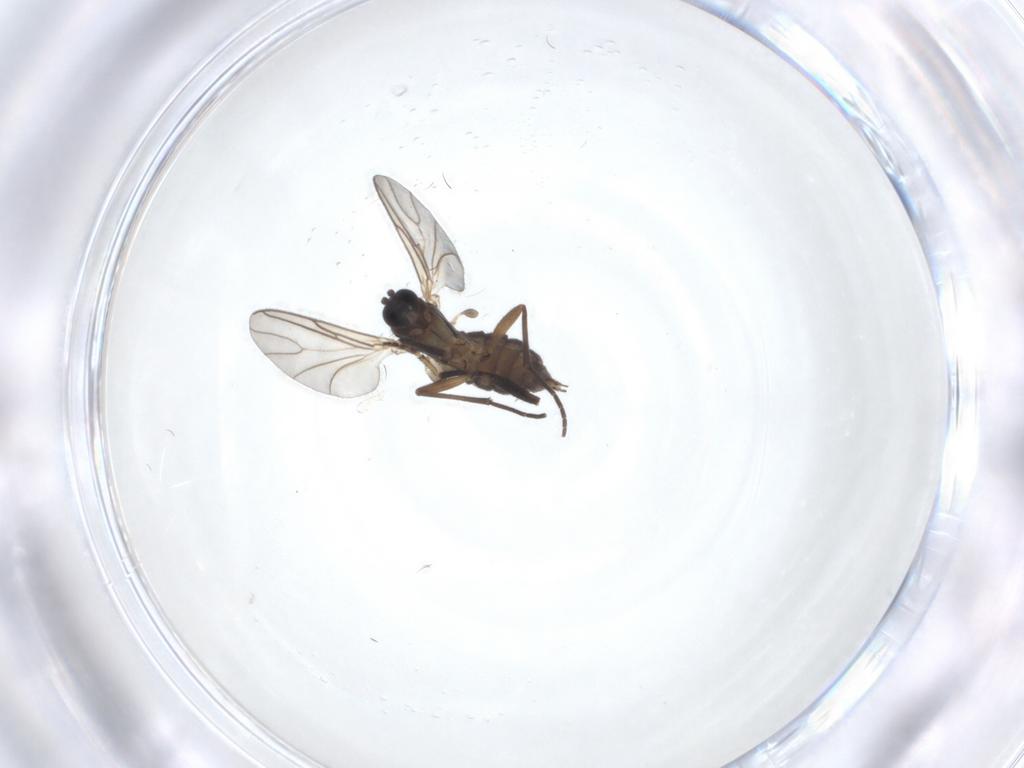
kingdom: Animalia
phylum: Arthropoda
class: Insecta
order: Diptera
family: Sciaridae
